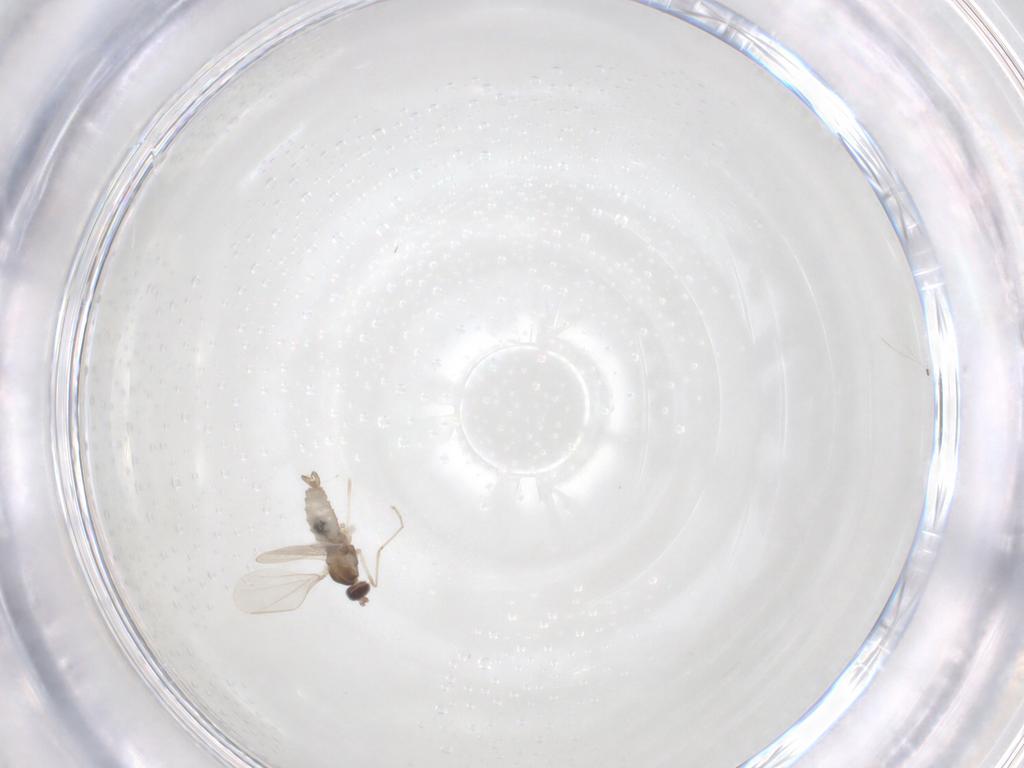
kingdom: Animalia
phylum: Arthropoda
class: Insecta
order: Diptera
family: Cecidomyiidae
